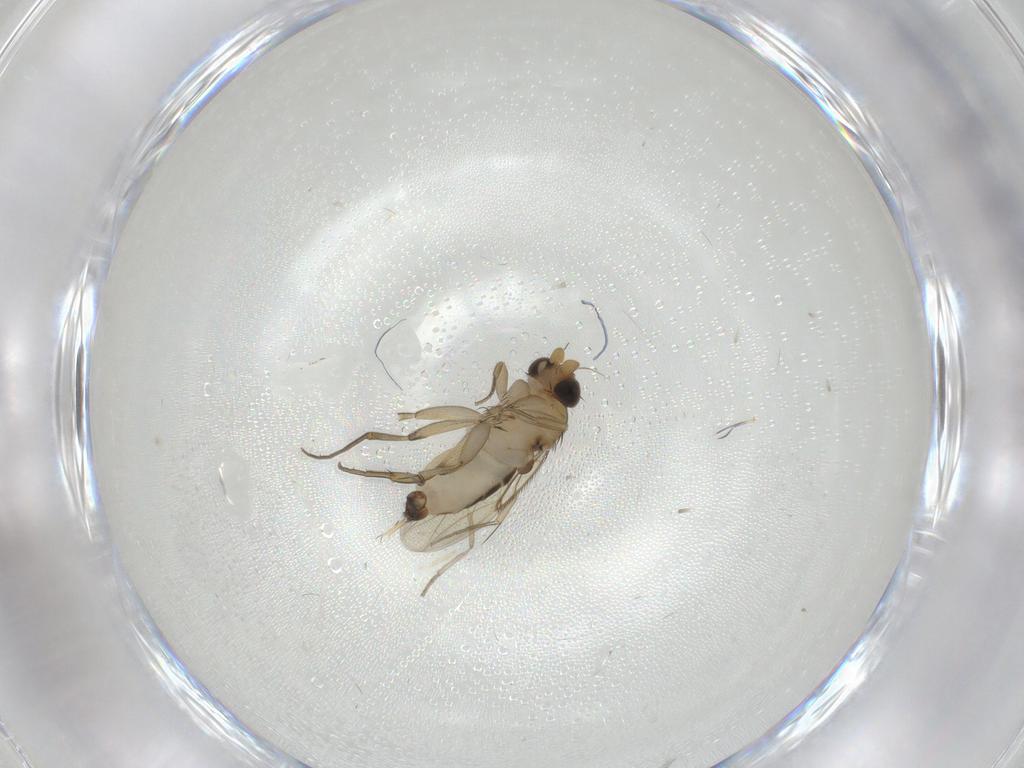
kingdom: Animalia
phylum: Arthropoda
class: Insecta
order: Diptera
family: Phoridae
